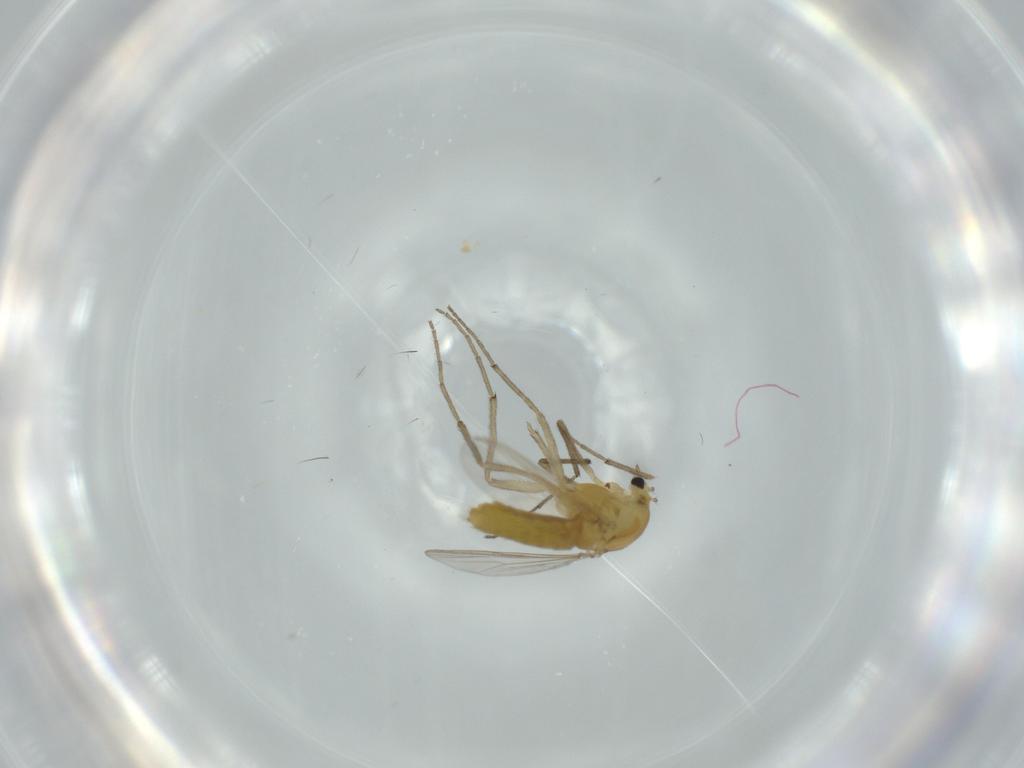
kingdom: Animalia
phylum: Arthropoda
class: Insecta
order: Diptera
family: Chironomidae
